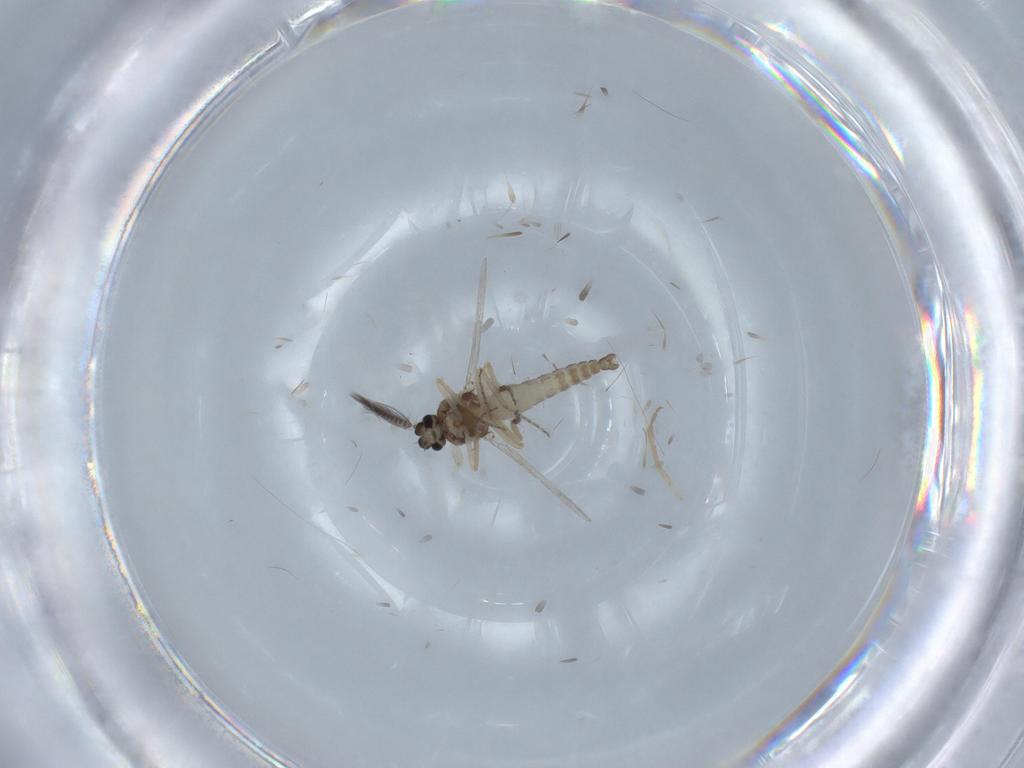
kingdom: Animalia
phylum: Arthropoda
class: Insecta
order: Diptera
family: Ceratopogonidae
